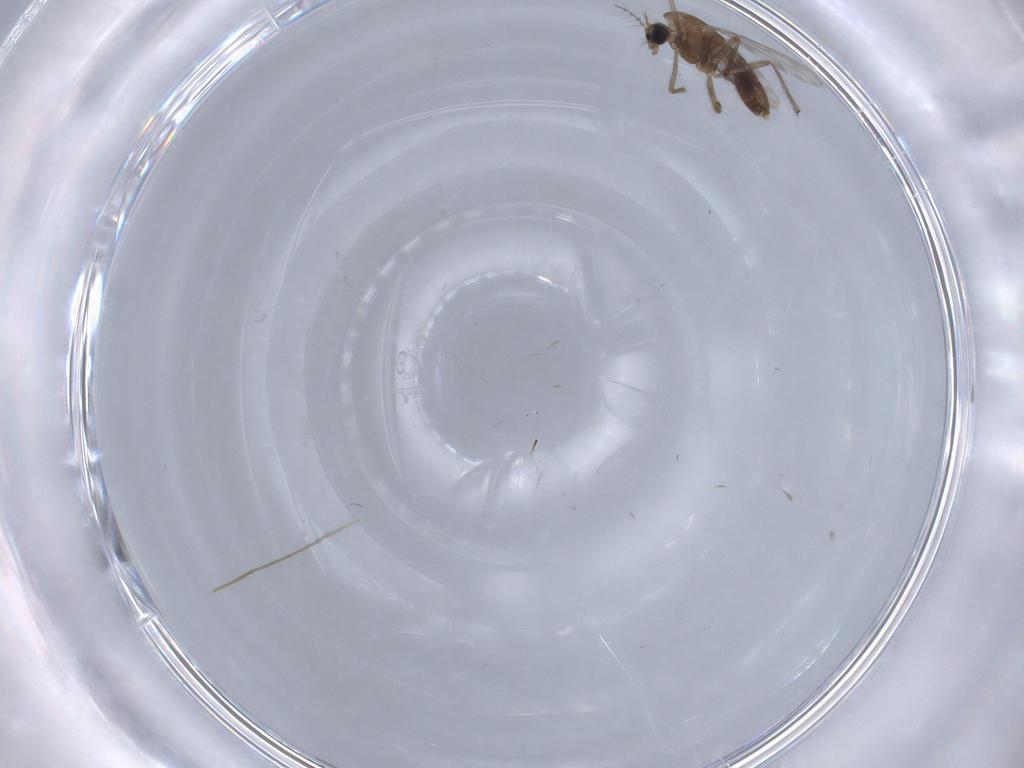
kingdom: Animalia
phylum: Arthropoda
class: Insecta
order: Diptera
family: Chironomidae
